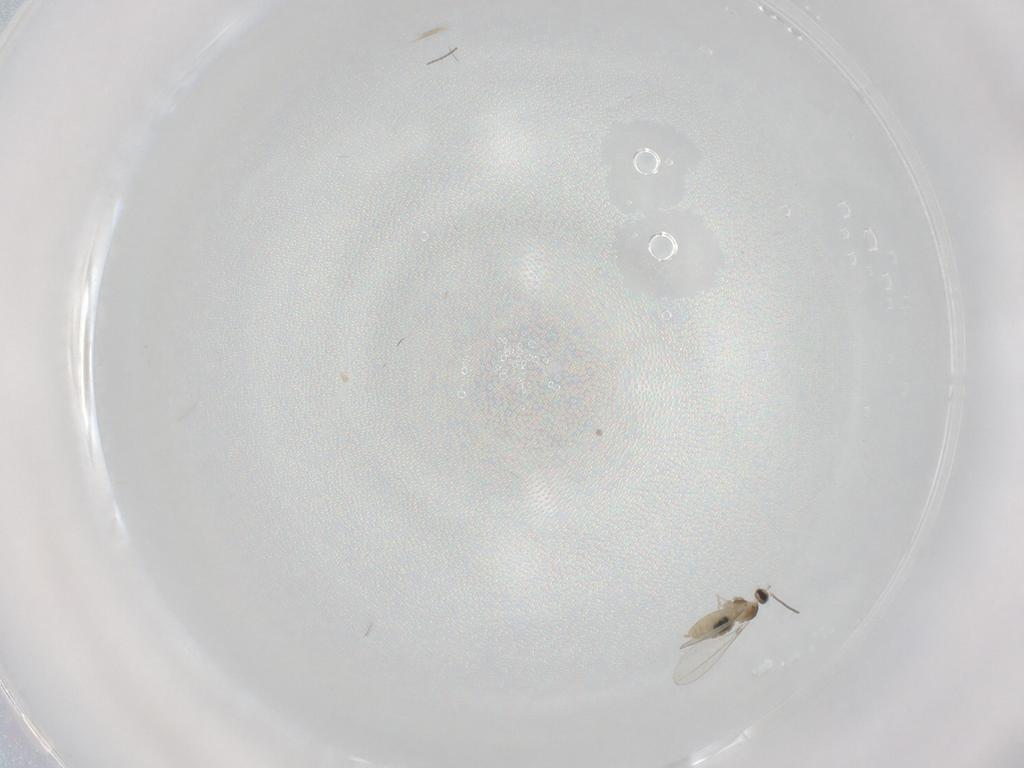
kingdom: Animalia
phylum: Arthropoda
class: Insecta
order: Diptera
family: Cecidomyiidae
